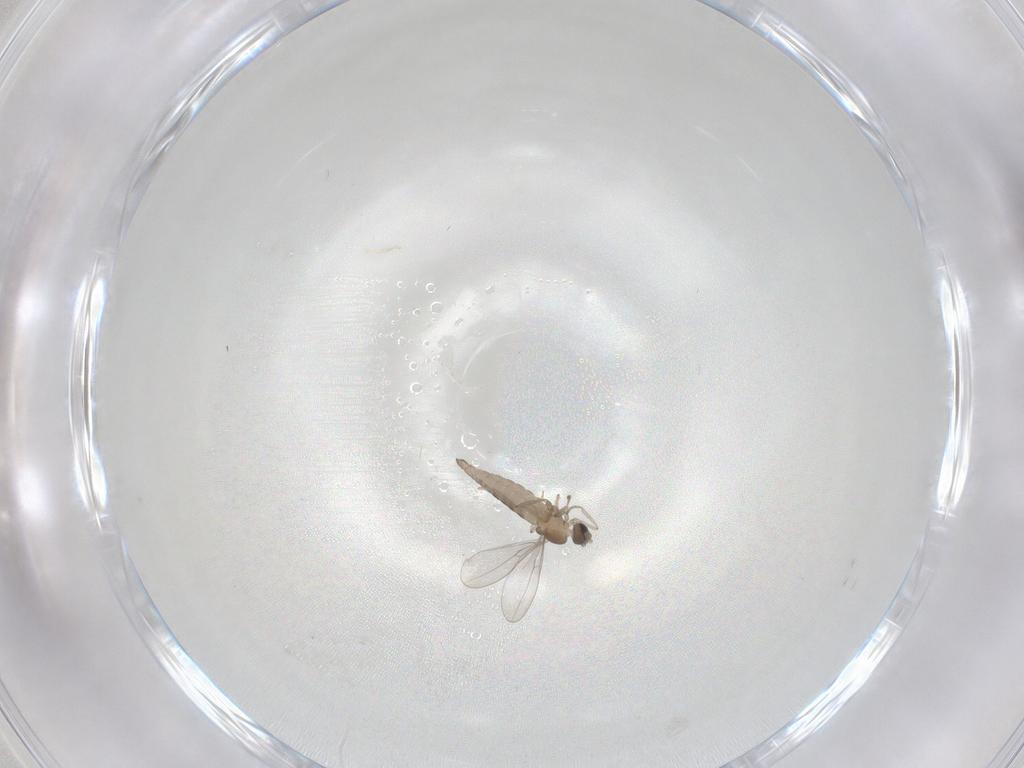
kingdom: Animalia
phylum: Arthropoda
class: Insecta
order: Diptera
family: Cecidomyiidae
